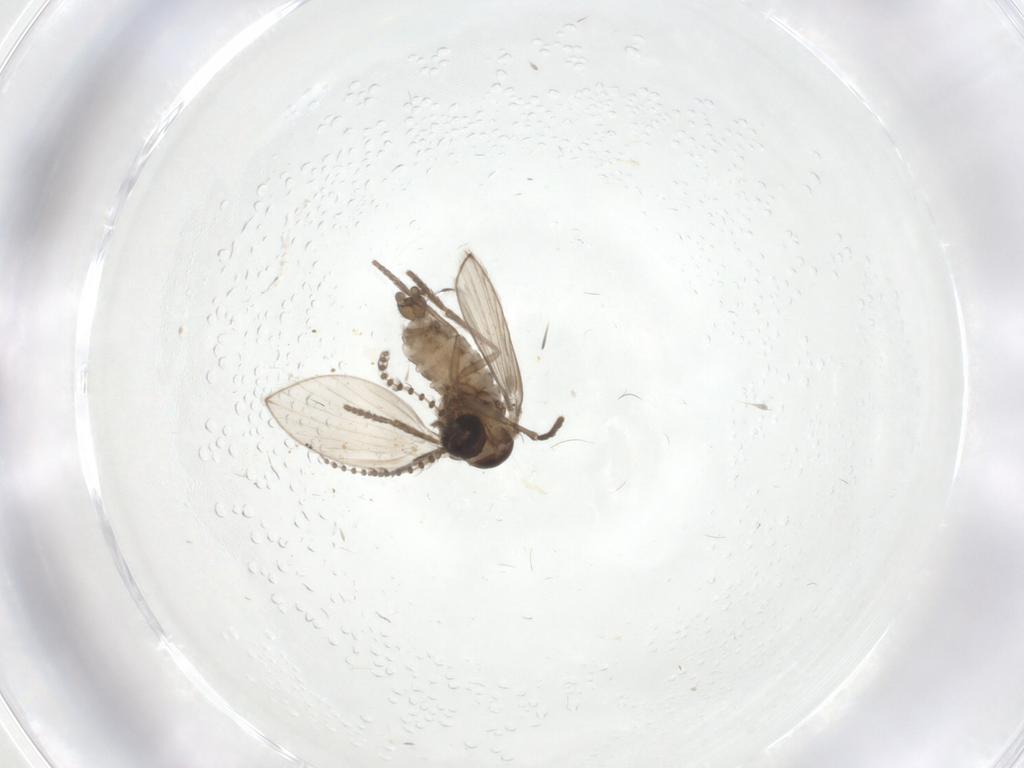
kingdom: Animalia
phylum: Arthropoda
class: Insecta
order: Diptera
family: Psychodidae
